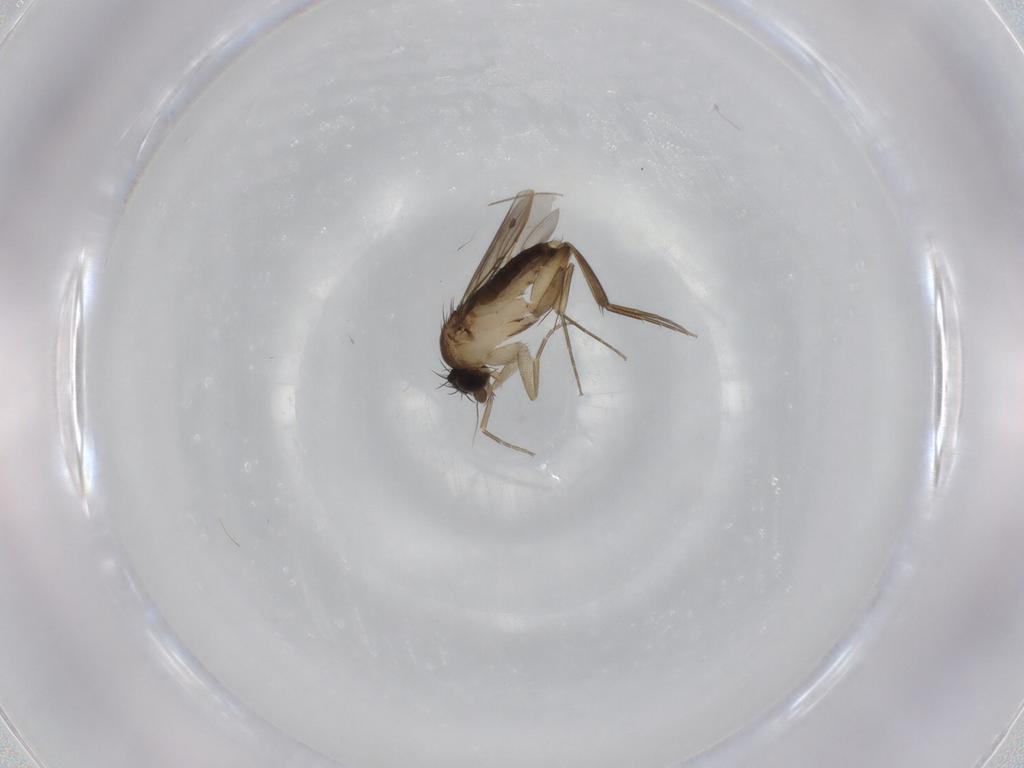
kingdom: Animalia
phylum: Arthropoda
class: Insecta
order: Diptera
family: Phoridae
